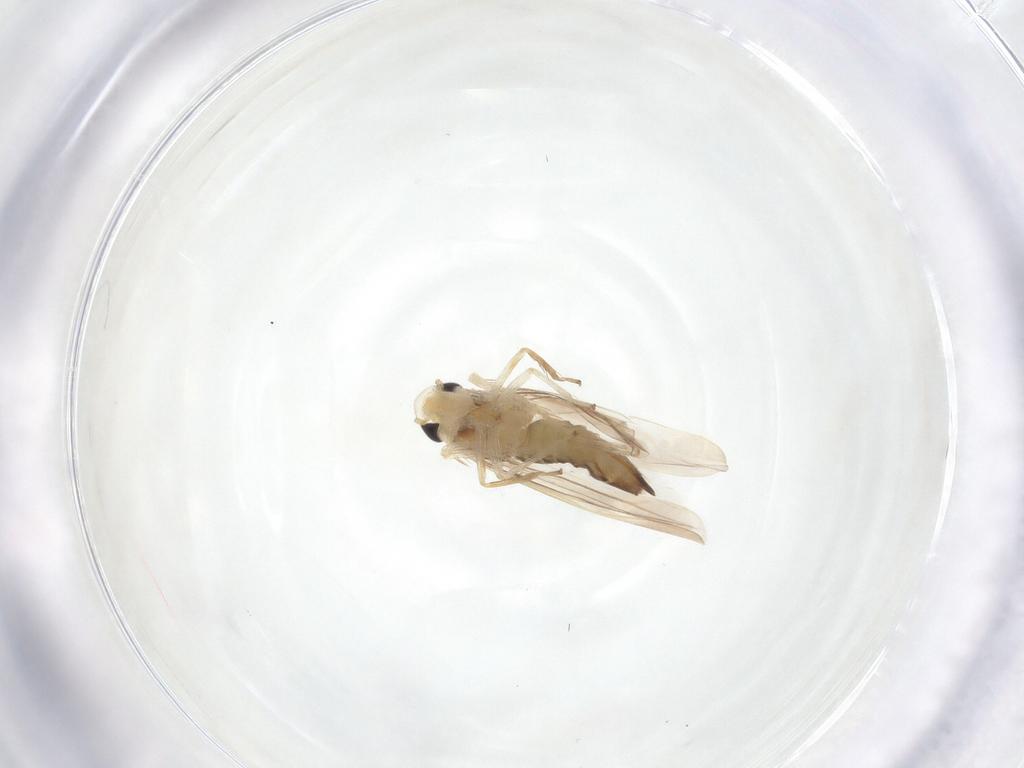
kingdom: Animalia
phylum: Arthropoda
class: Insecta
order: Hemiptera
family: Cicadellidae
